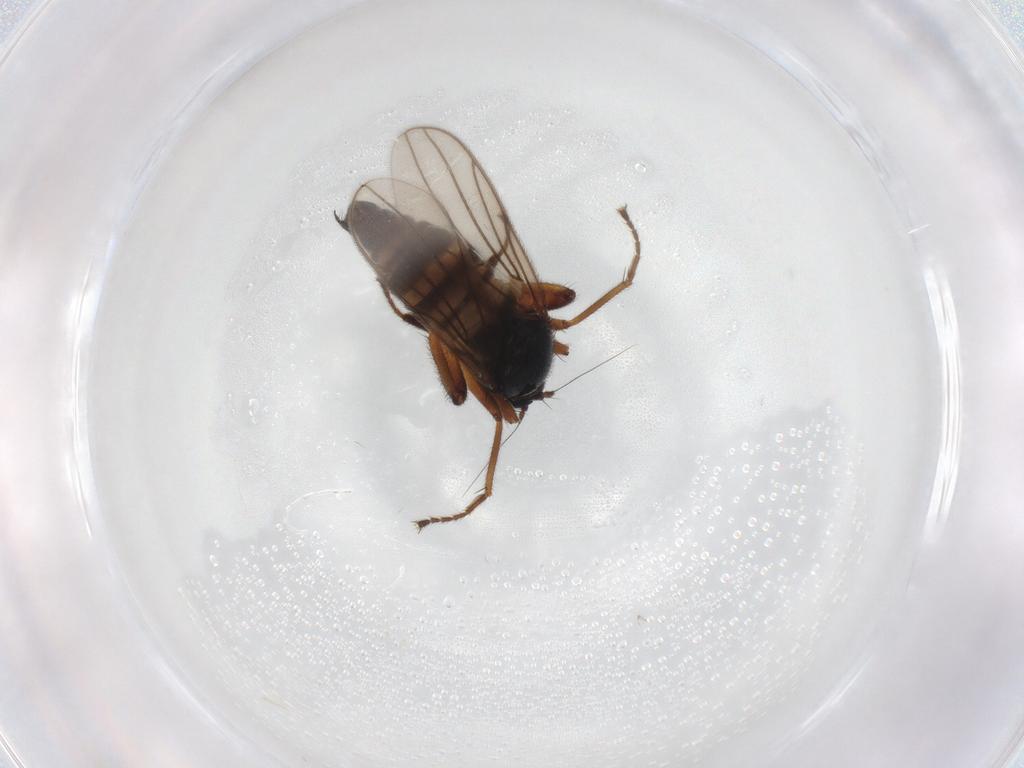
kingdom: Animalia
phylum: Arthropoda
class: Insecta
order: Diptera
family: Hybotidae
